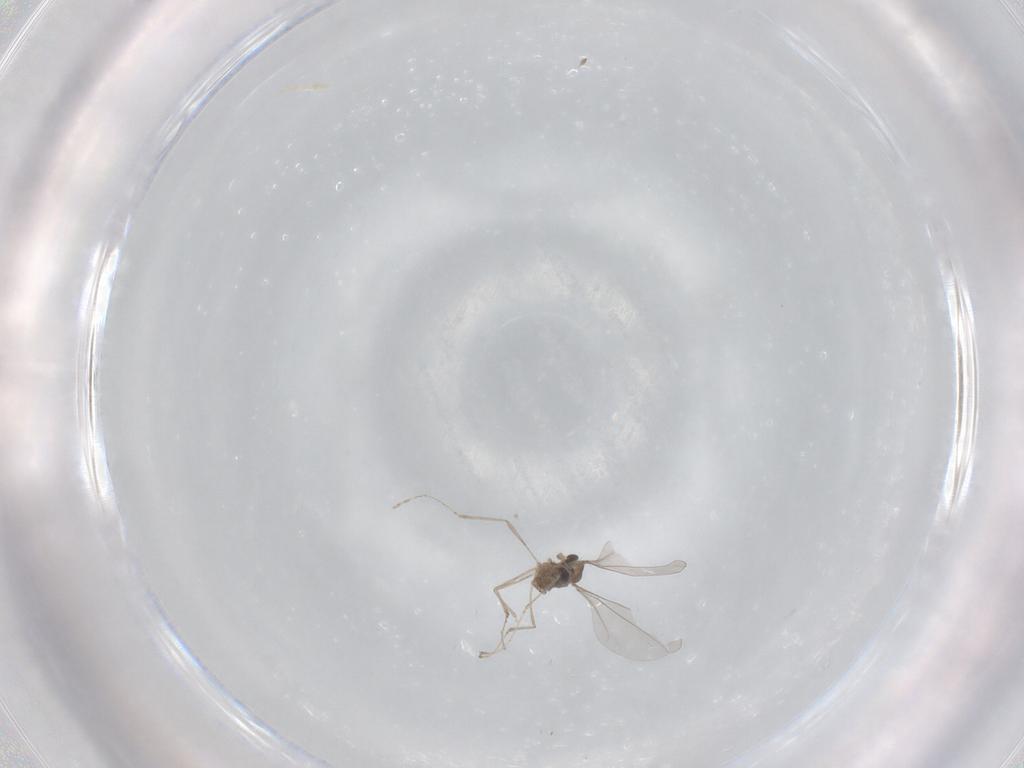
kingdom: Animalia
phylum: Arthropoda
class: Insecta
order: Diptera
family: Cecidomyiidae
